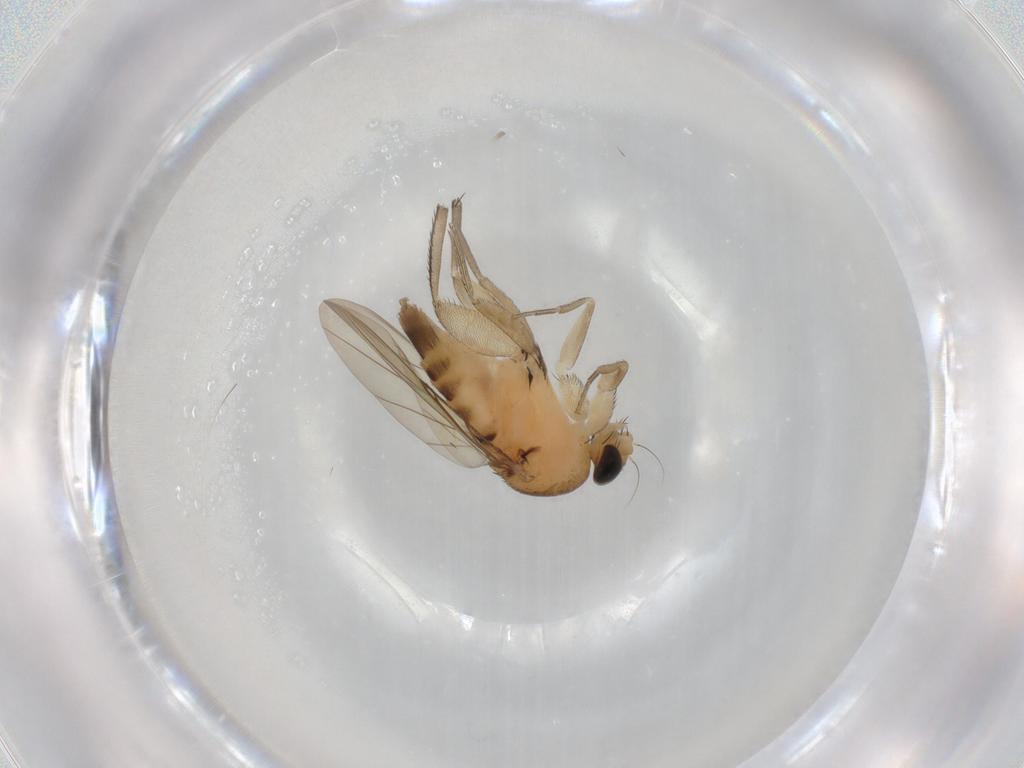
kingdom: Animalia
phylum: Arthropoda
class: Insecta
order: Diptera
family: Phoridae
